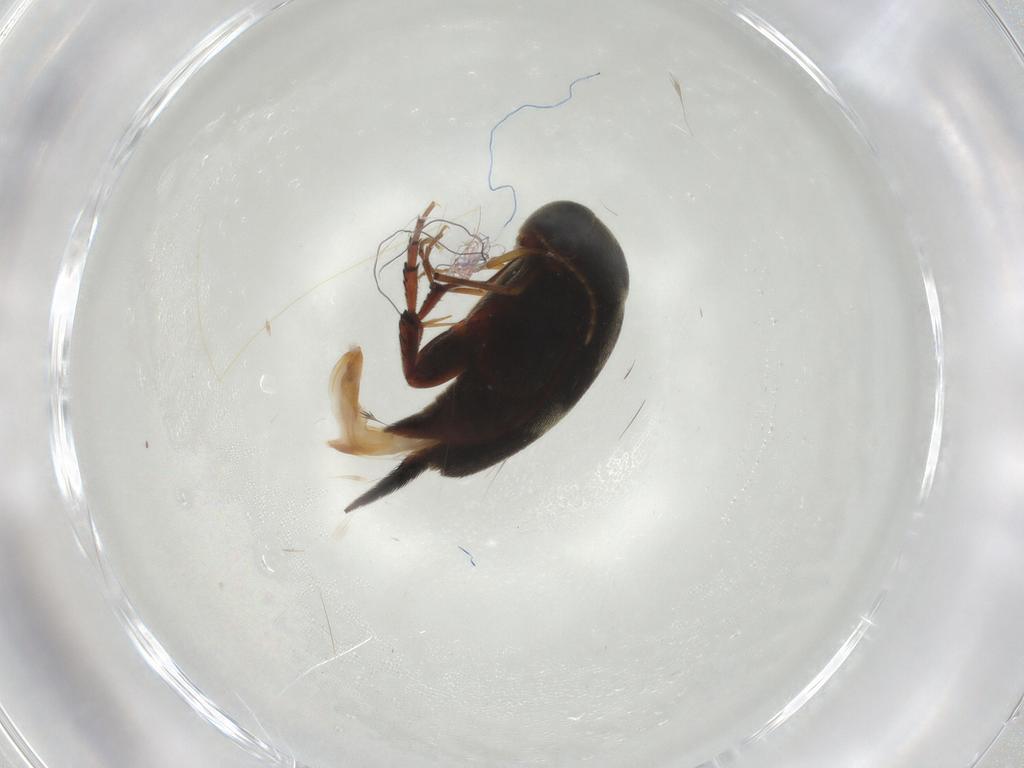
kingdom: Animalia
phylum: Arthropoda
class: Insecta
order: Coleoptera
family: Mordellidae
